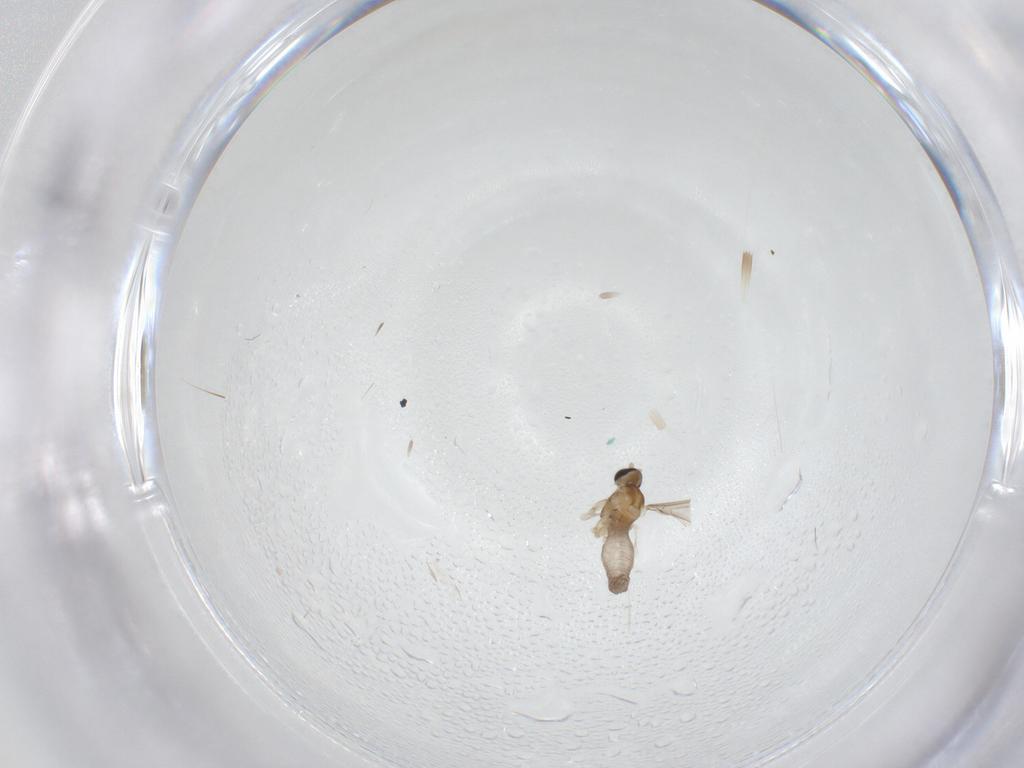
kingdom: Animalia
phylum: Arthropoda
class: Insecta
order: Diptera
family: Cecidomyiidae
